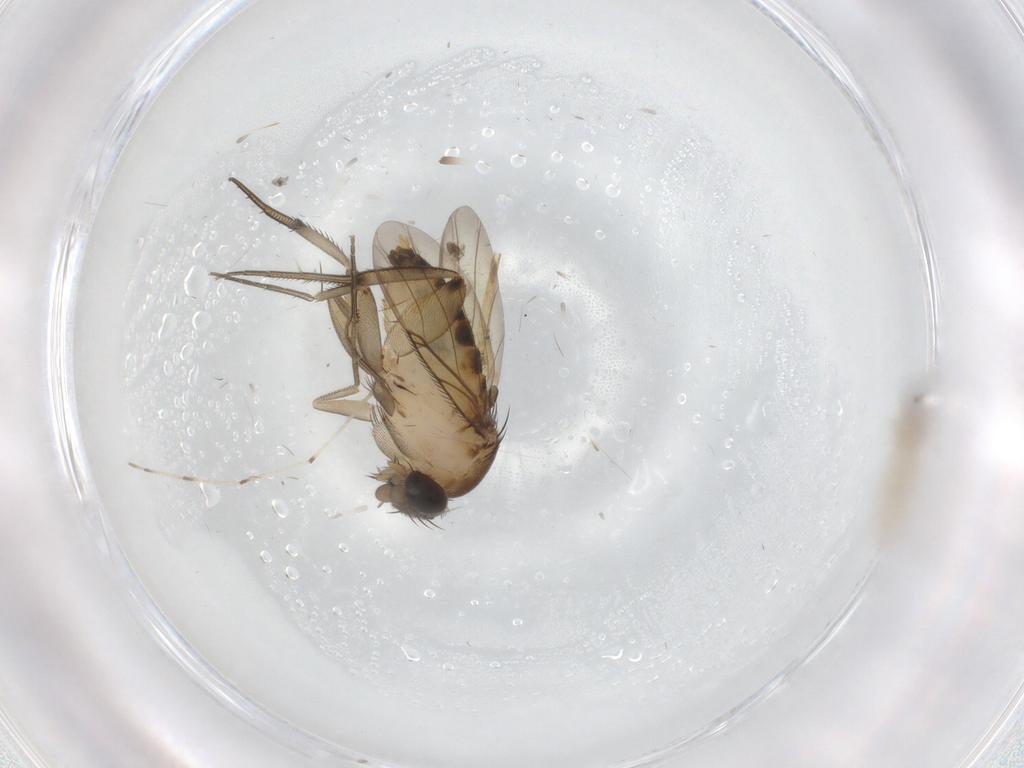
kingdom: Animalia
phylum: Arthropoda
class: Insecta
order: Diptera
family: Phoridae
